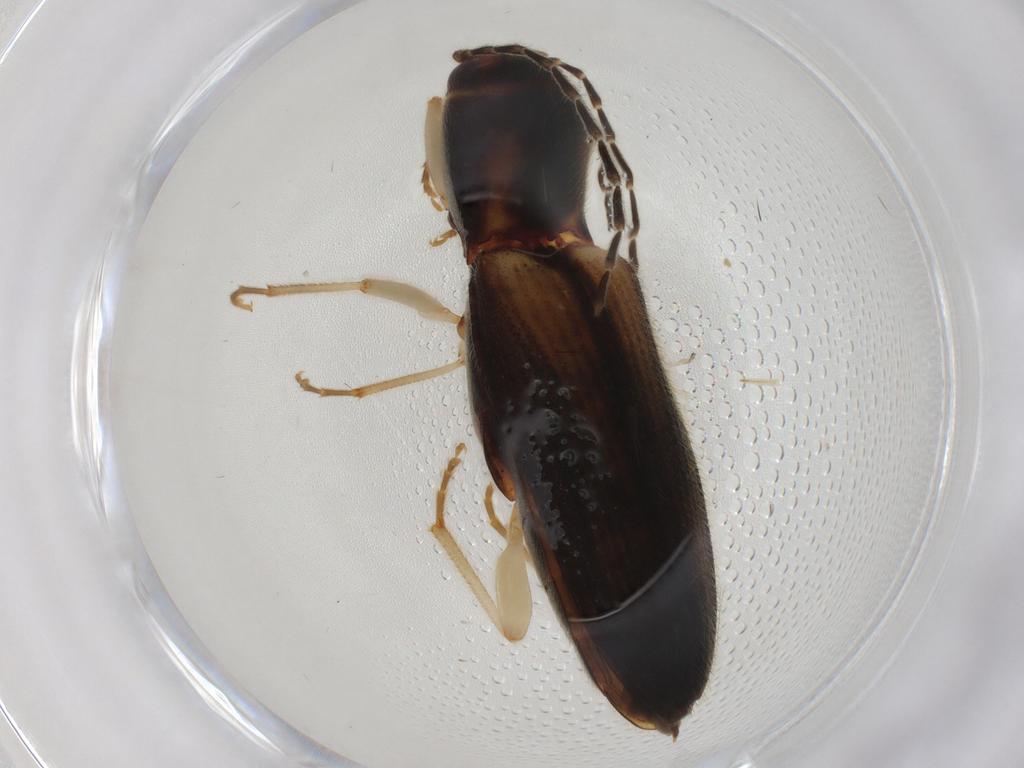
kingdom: Animalia
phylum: Arthropoda
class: Insecta
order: Coleoptera
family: Elateridae
